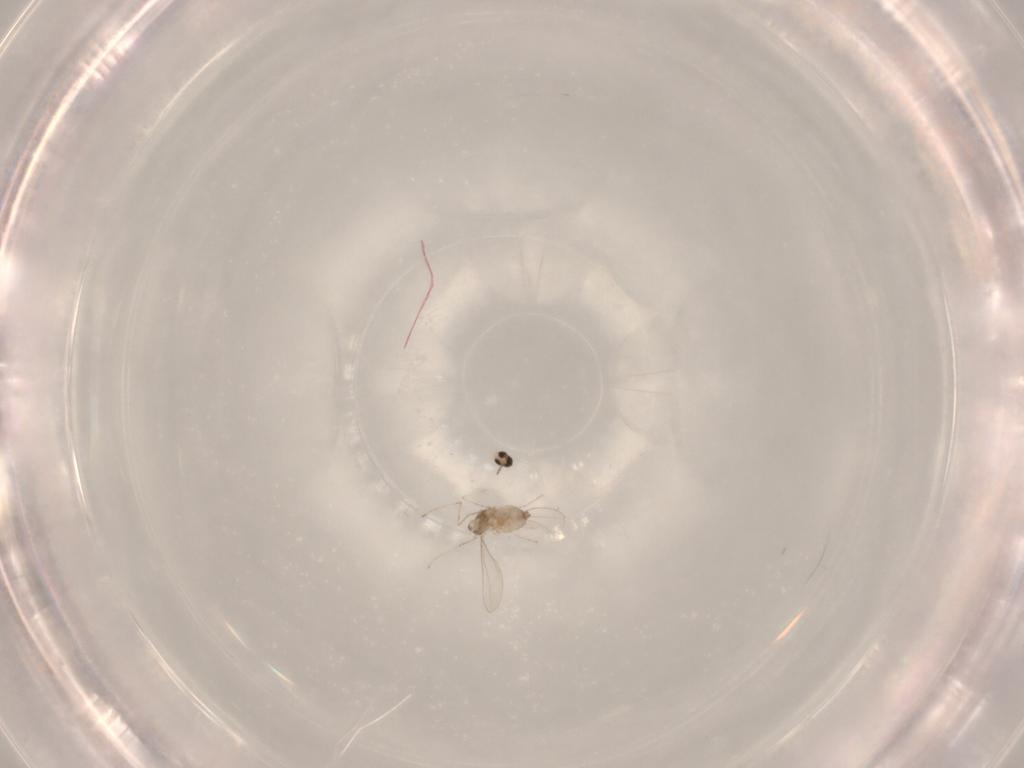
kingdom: Animalia
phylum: Arthropoda
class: Insecta
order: Diptera
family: Cecidomyiidae
